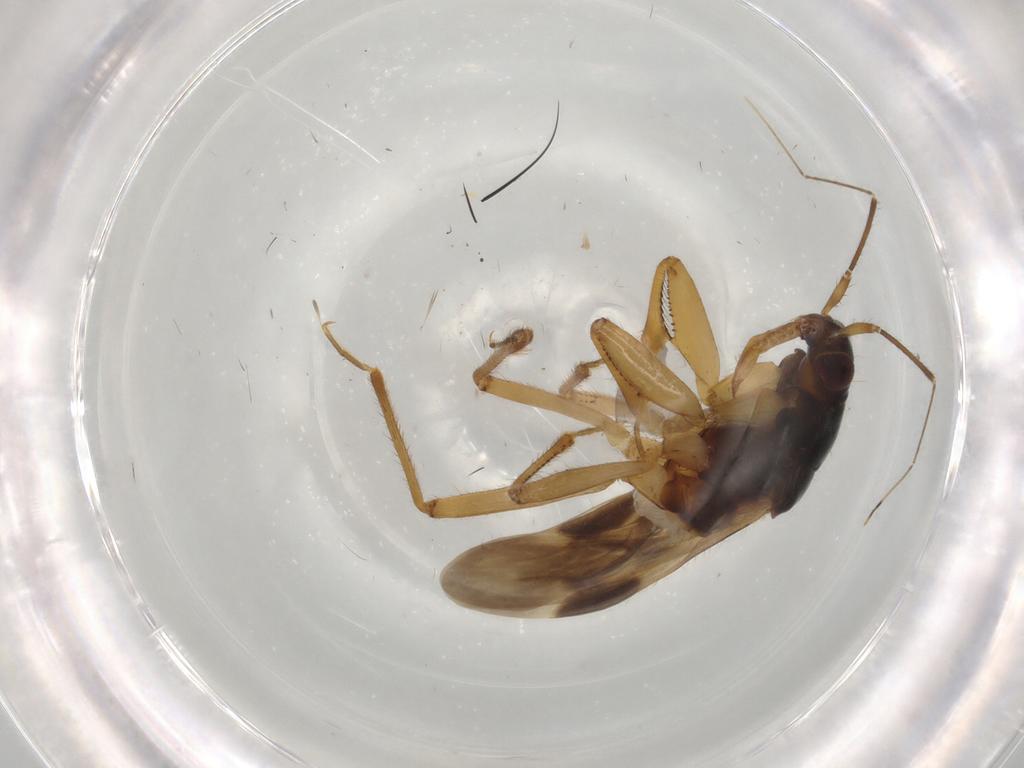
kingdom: Animalia
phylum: Arthropoda
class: Insecta
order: Hemiptera
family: Nabidae
